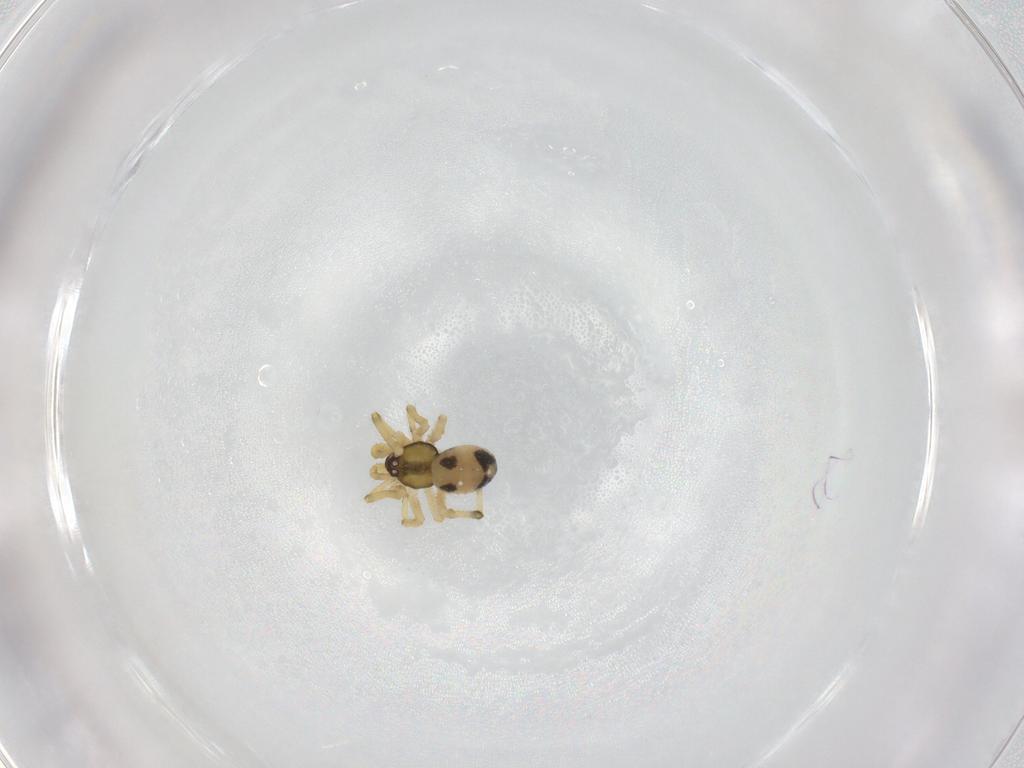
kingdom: Animalia
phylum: Arthropoda
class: Arachnida
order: Araneae
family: Theridiidae
